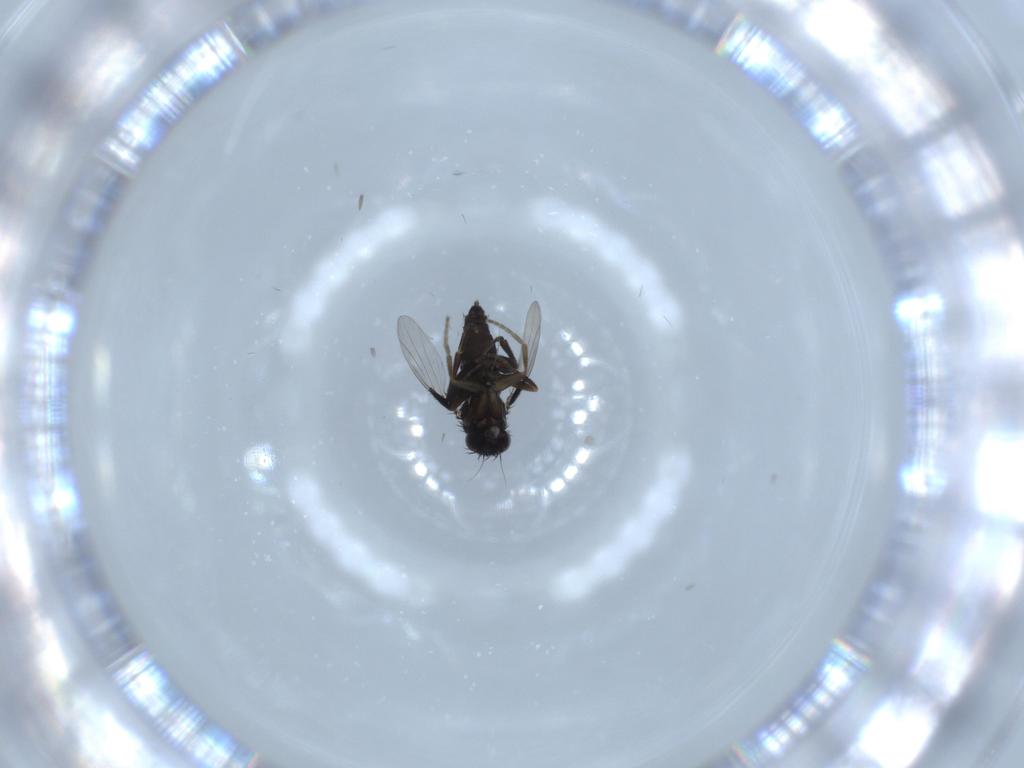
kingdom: Animalia
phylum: Arthropoda
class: Insecta
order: Diptera
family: Phoridae
